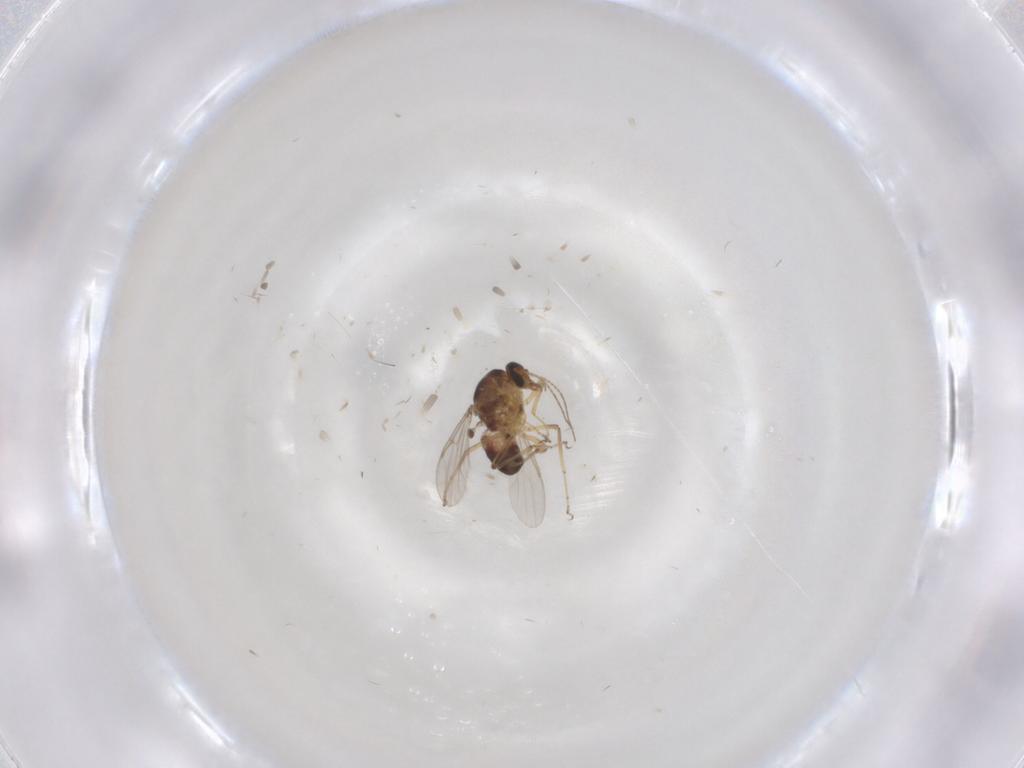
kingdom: Animalia
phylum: Arthropoda
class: Insecta
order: Diptera
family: Ceratopogonidae
